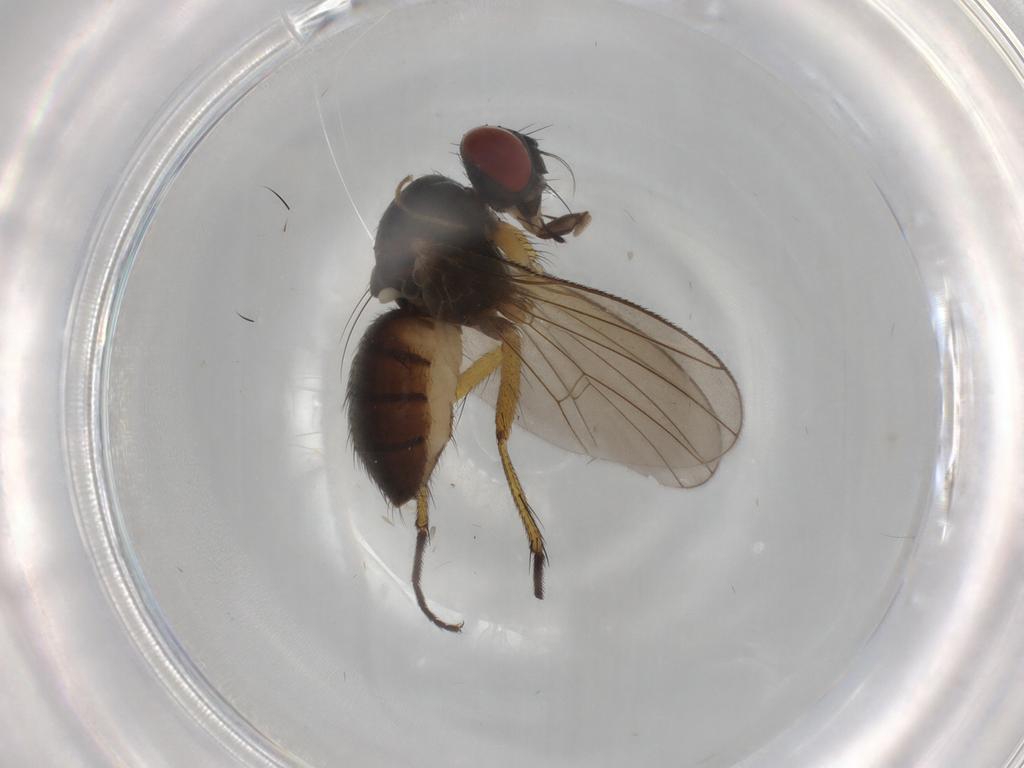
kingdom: Animalia
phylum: Arthropoda
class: Insecta
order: Diptera
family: Muscidae
